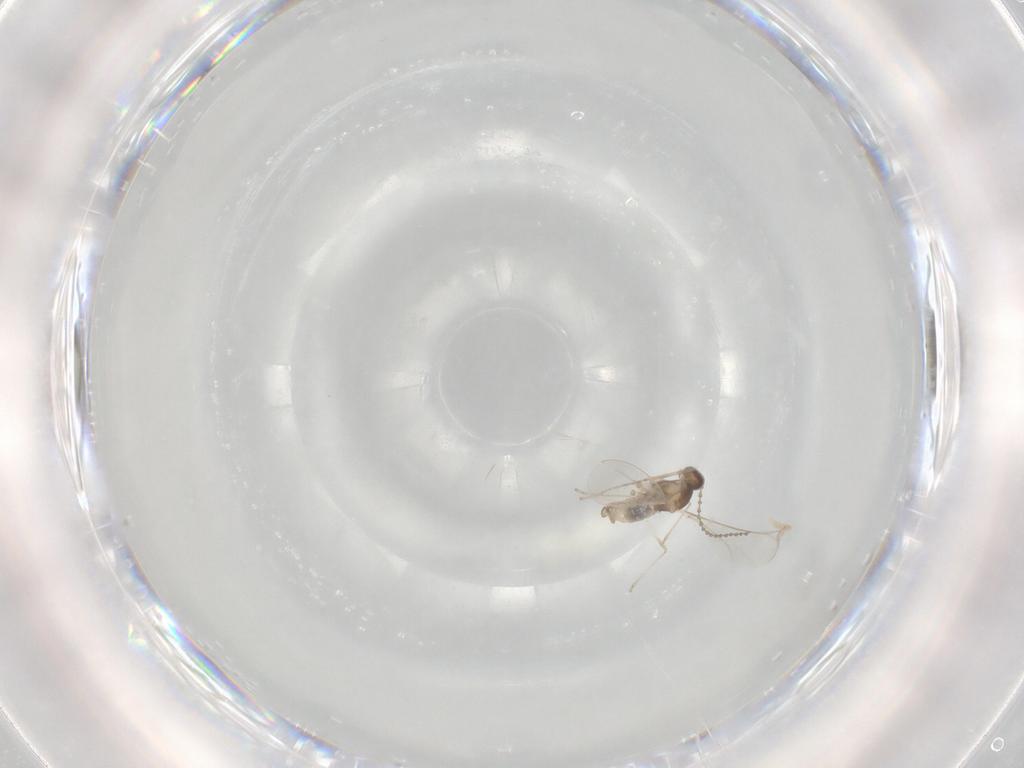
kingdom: Animalia
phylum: Arthropoda
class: Insecta
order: Diptera
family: Cecidomyiidae
